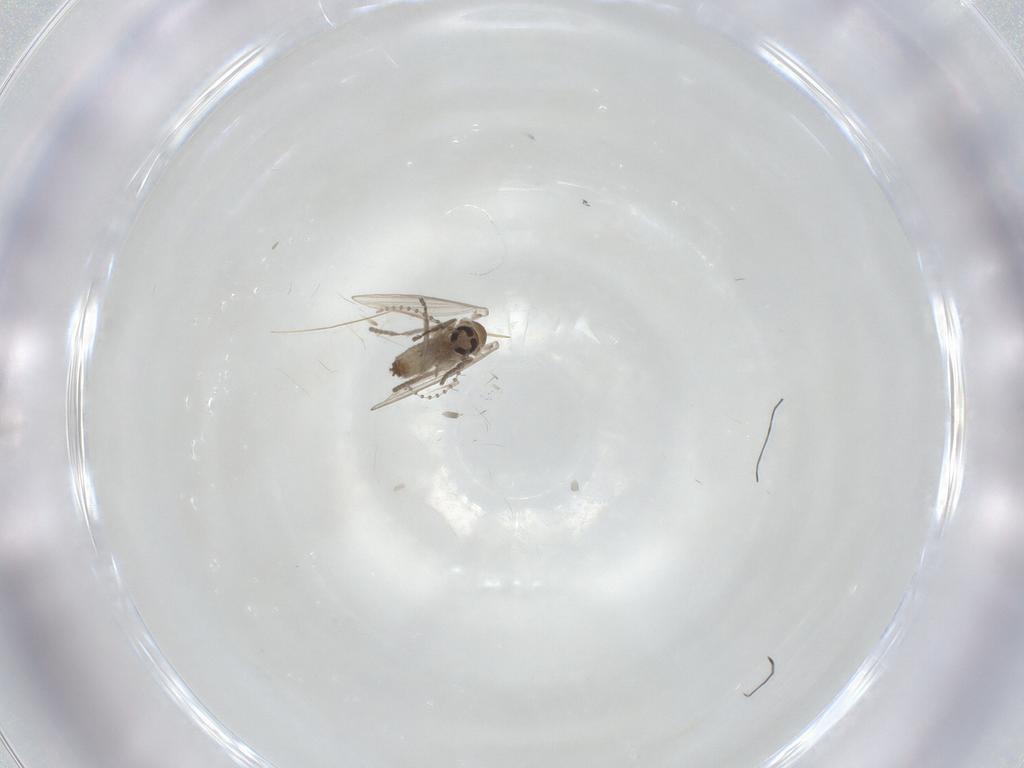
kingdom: Animalia
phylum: Arthropoda
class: Insecta
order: Diptera
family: Psychodidae
